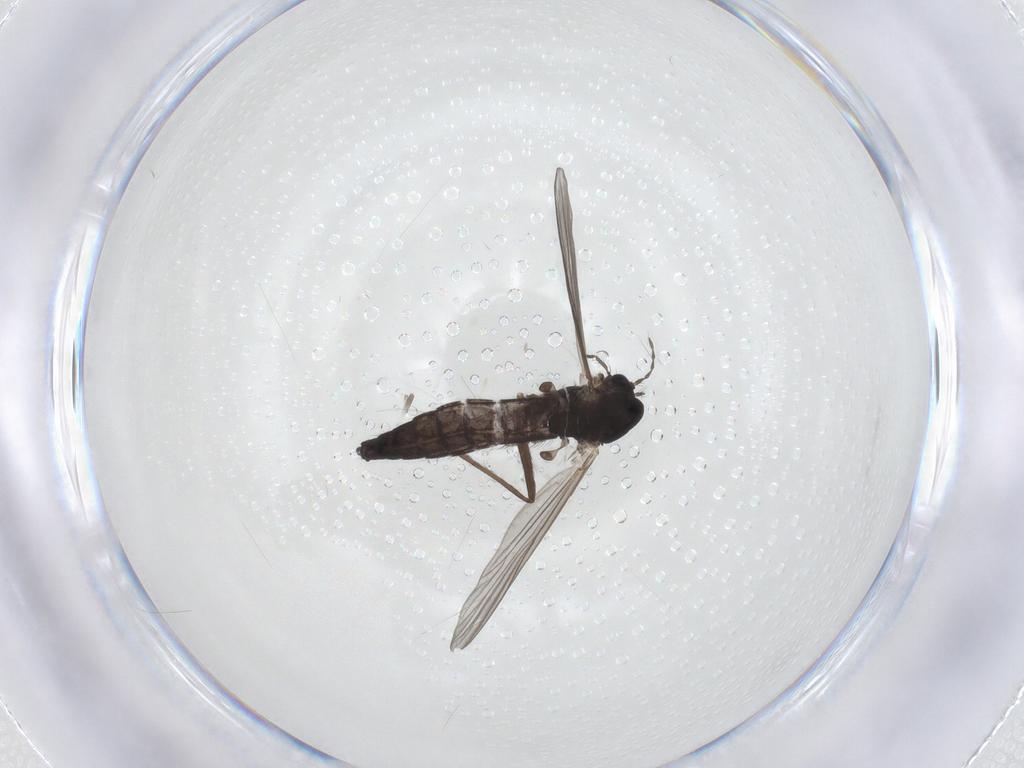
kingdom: Animalia
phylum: Arthropoda
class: Insecta
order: Diptera
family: Chironomidae
